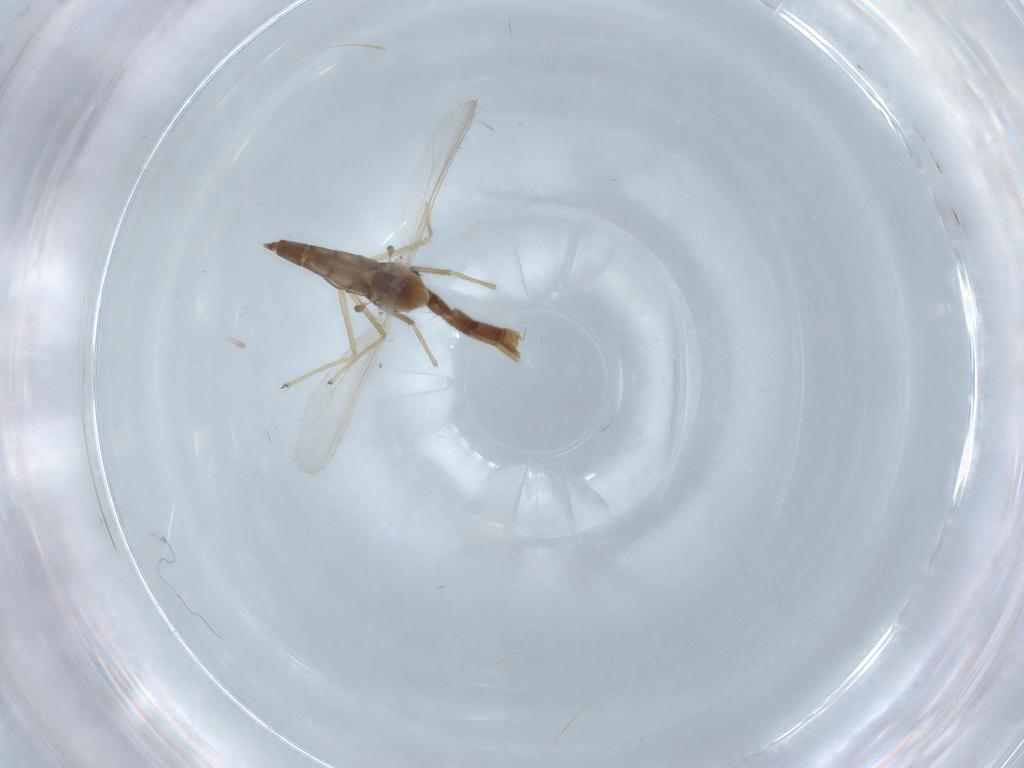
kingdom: Animalia
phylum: Arthropoda
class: Insecta
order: Diptera
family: Chironomidae
